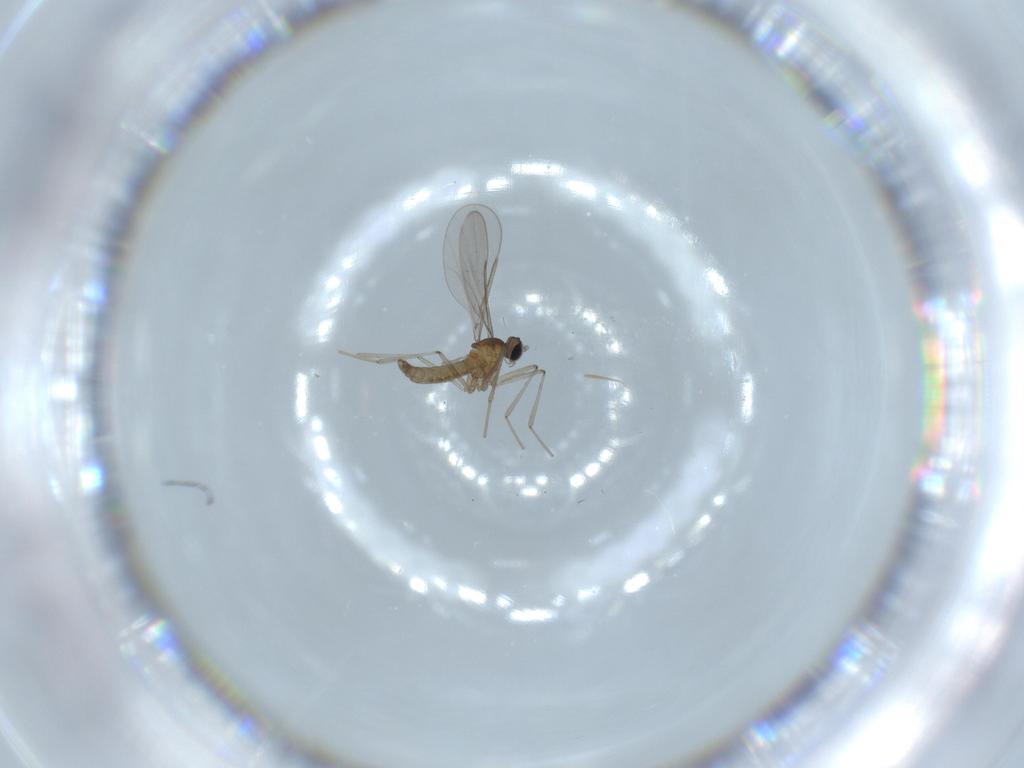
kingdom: Animalia
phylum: Arthropoda
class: Insecta
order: Diptera
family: Cecidomyiidae
